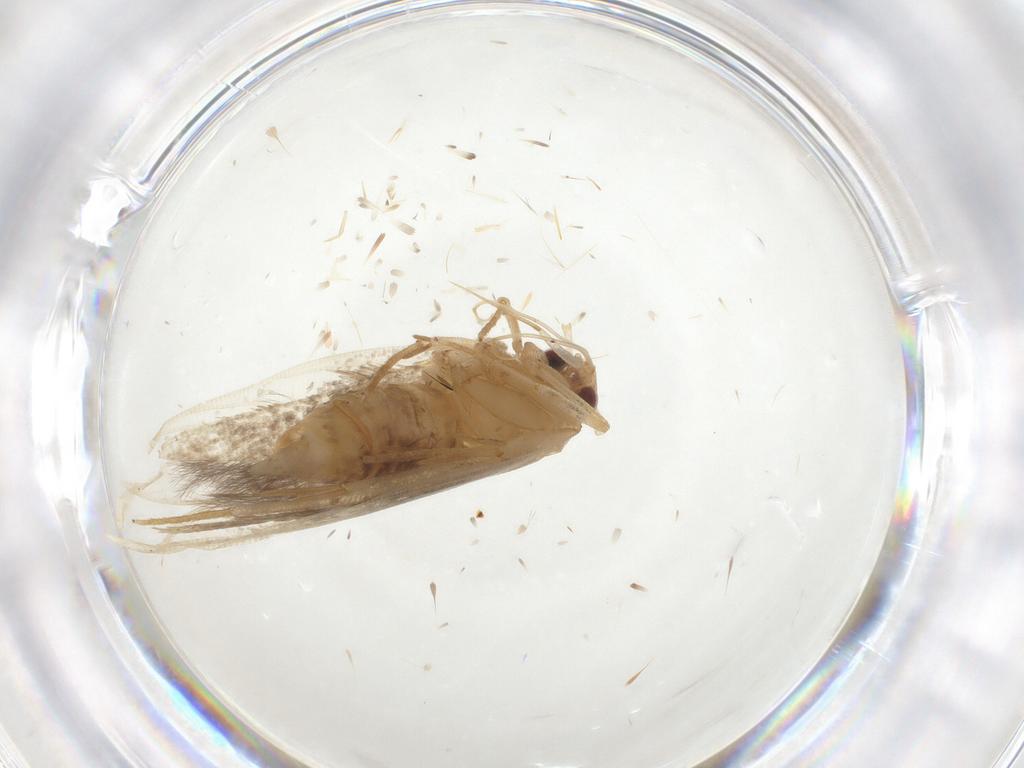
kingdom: Animalia
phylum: Arthropoda
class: Insecta
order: Lepidoptera
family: Cosmopterigidae
